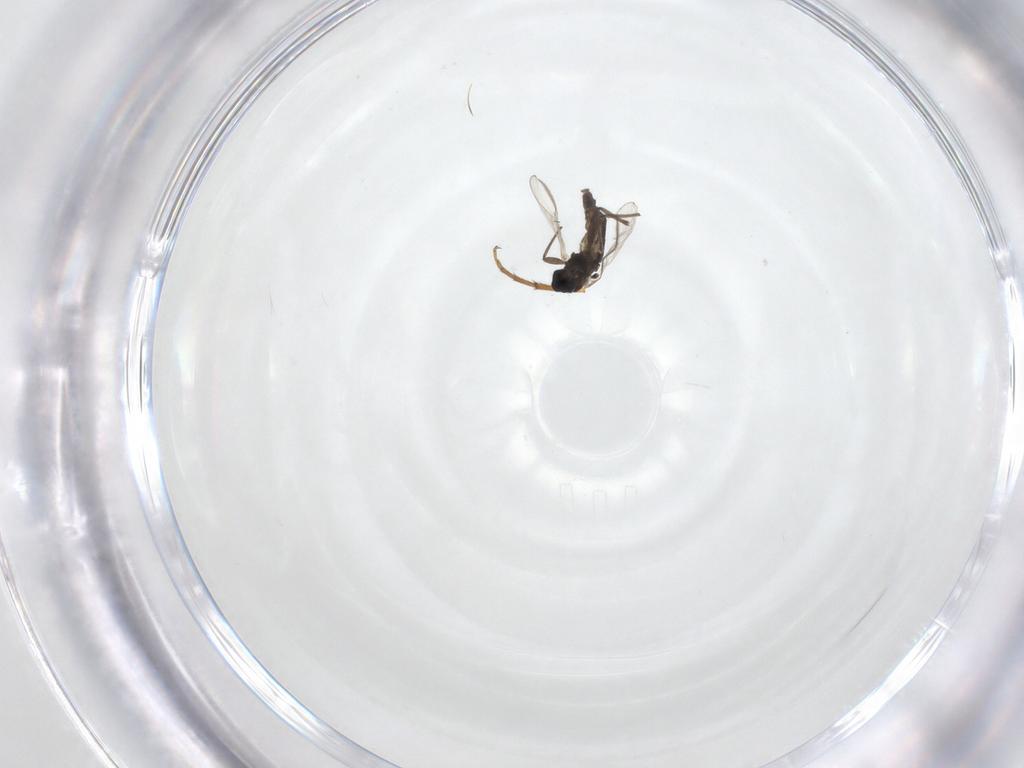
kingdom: Animalia
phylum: Arthropoda
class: Insecta
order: Diptera
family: Chironomidae
